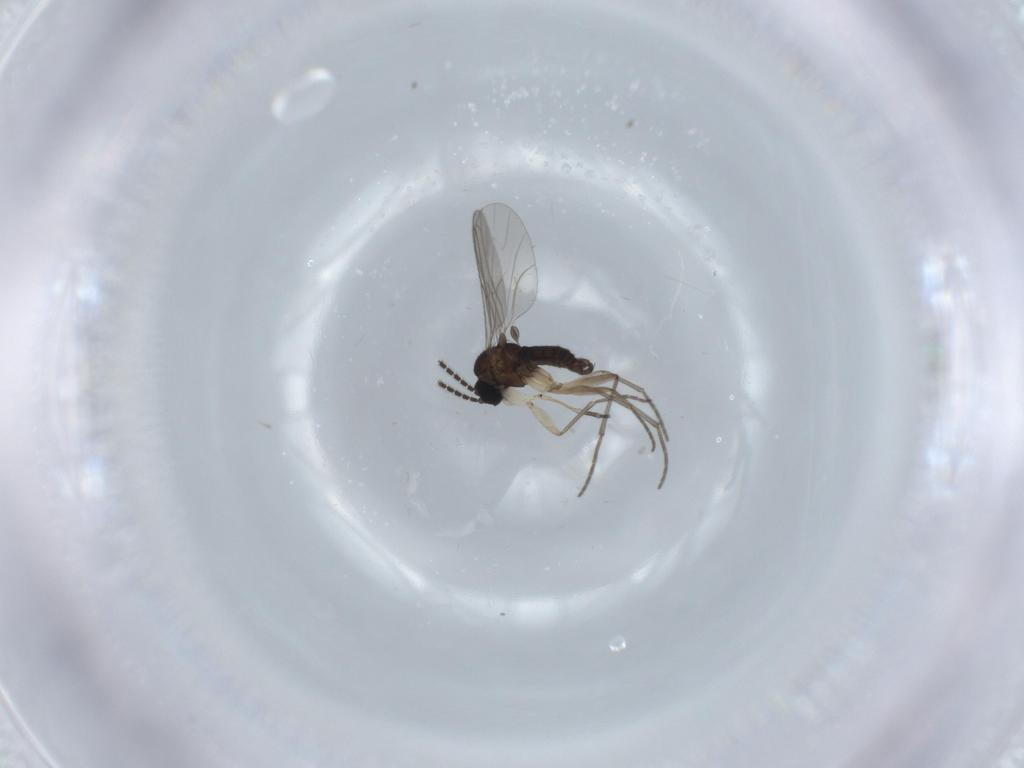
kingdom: Animalia
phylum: Arthropoda
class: Insecta
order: Diptera
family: Sciaridae
